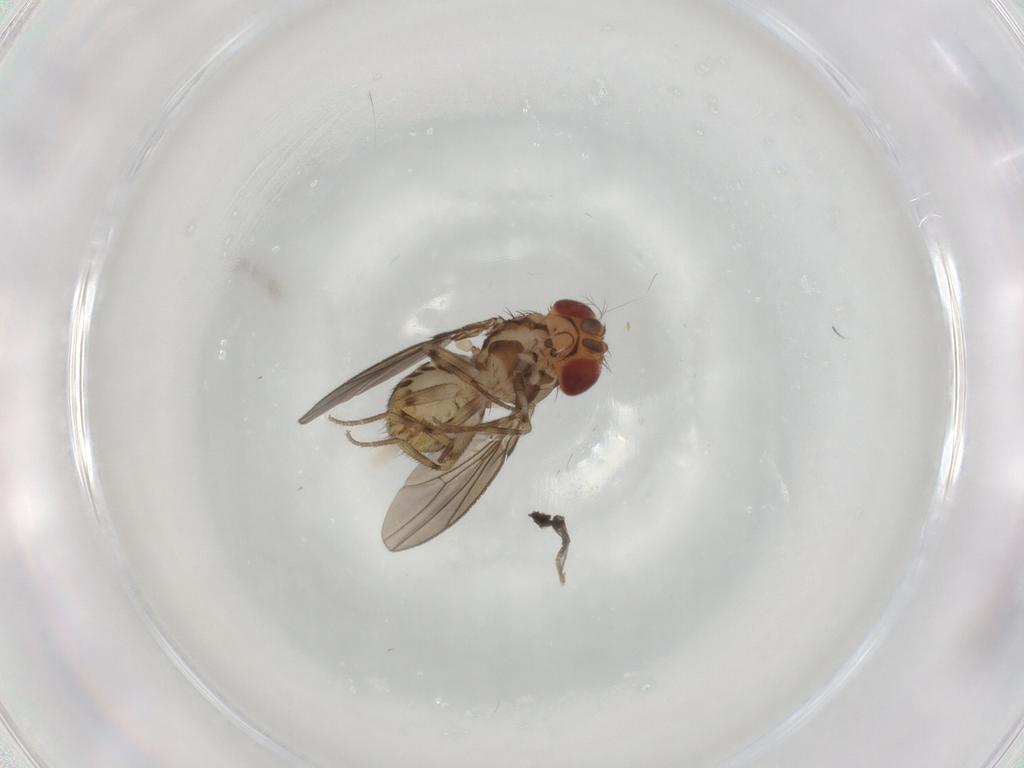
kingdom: Animalia
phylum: Arthropoda
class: Insecta
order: Diptera
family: Drosophilidae
